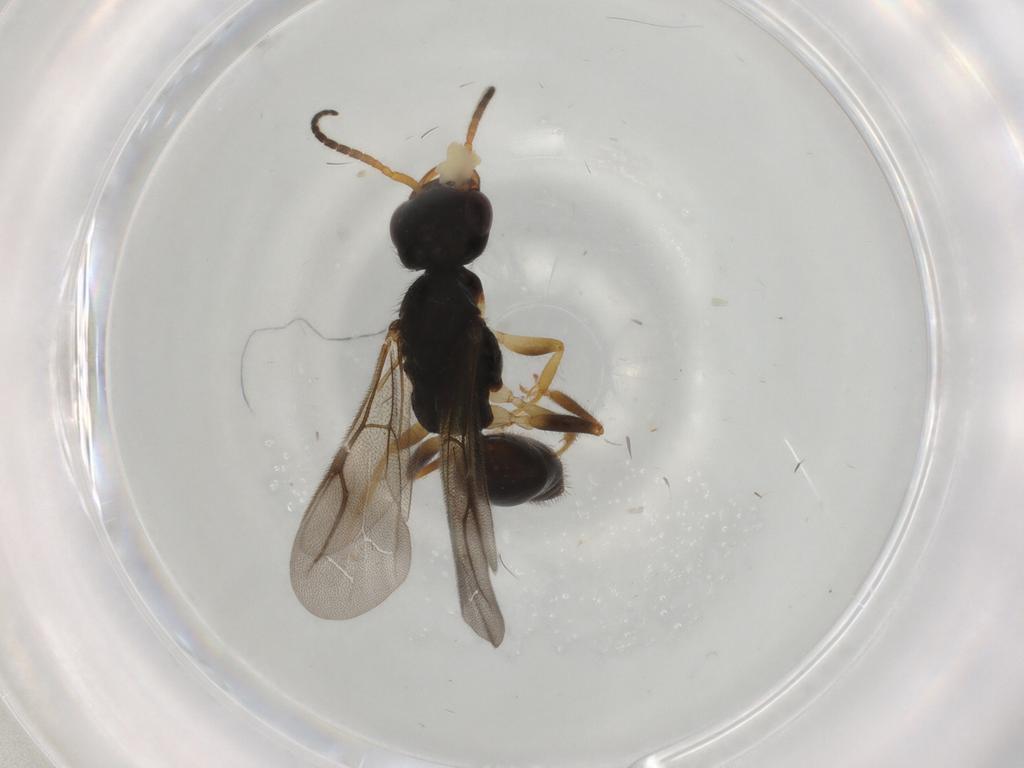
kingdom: Animalia
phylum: Arthropoda
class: Insecta
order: Hymenoptera
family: Bethylidae
